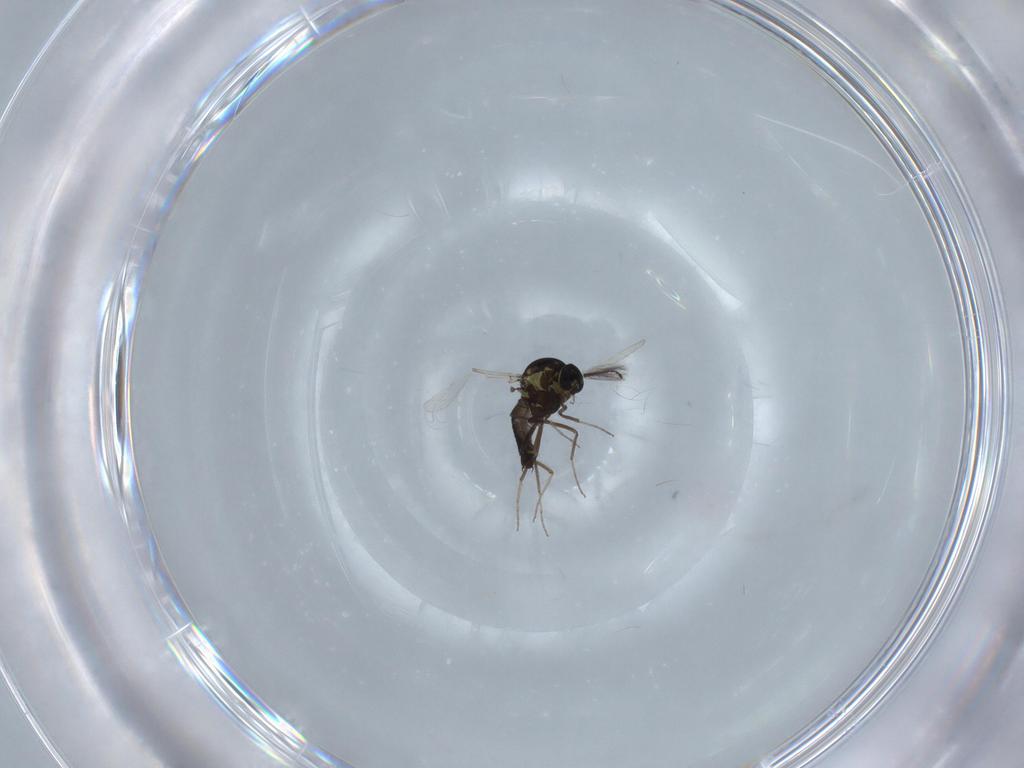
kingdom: Animalia
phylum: Arthropoda
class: Insecta
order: Diptera
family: Ceratopogonidae
